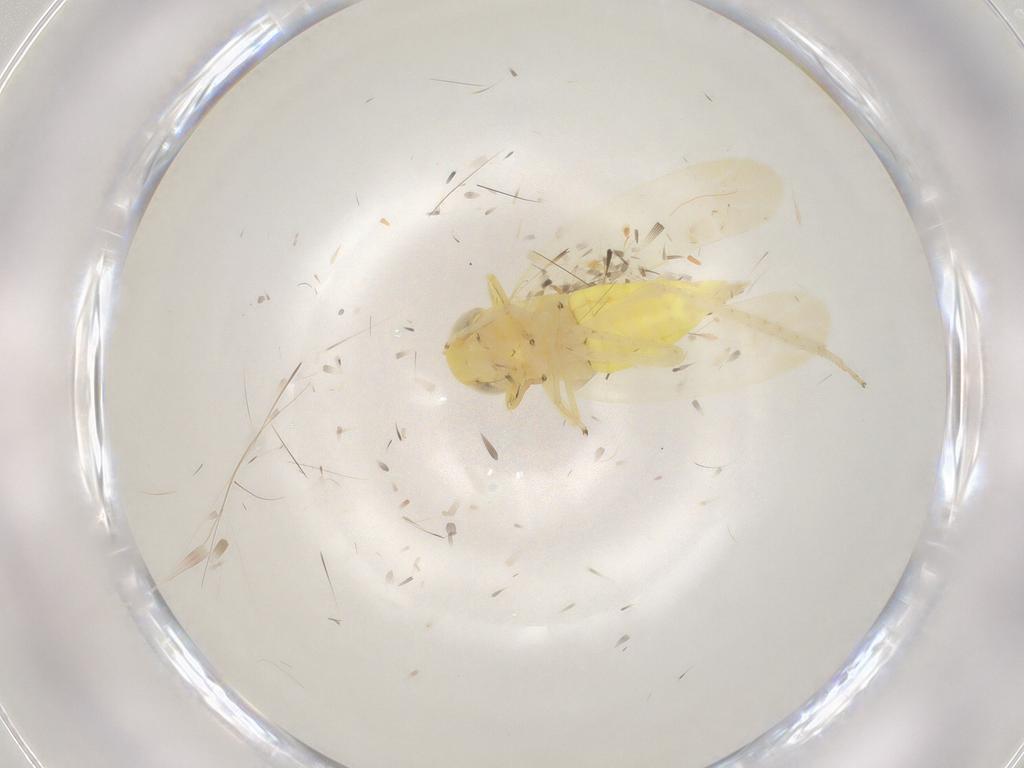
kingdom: Animalia
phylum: Arthropoda
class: Insecta
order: Hemiptera
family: Cicadellidae
